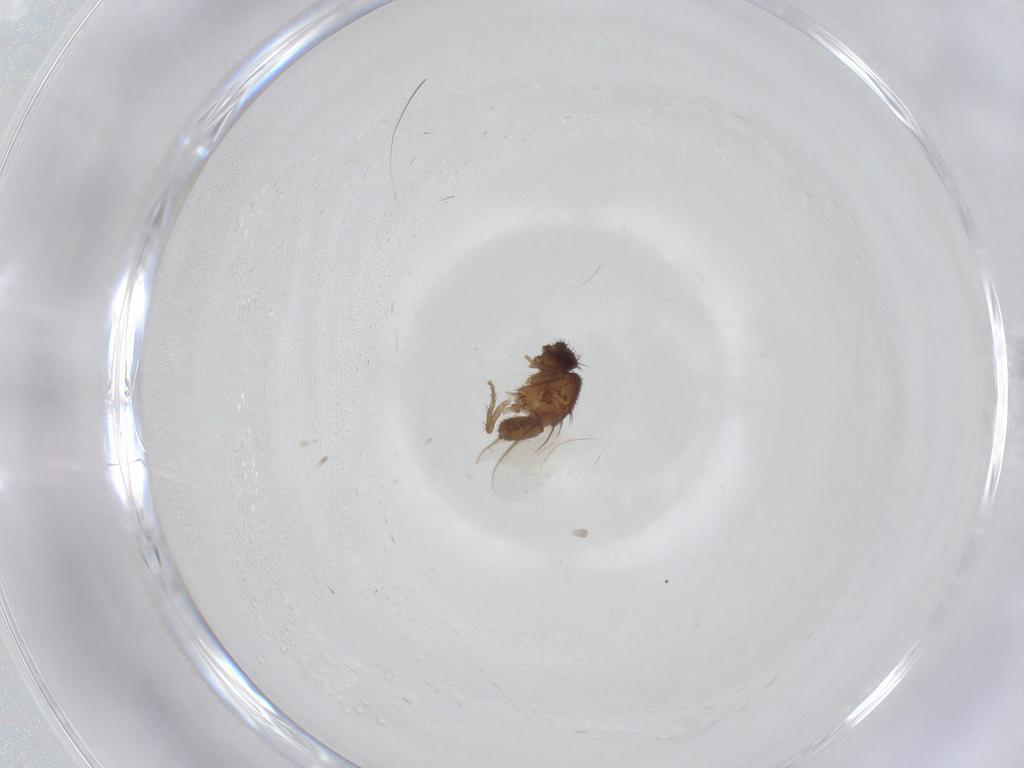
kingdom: Animalia
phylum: Arthropoda
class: Insecta
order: Diptera
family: Sphaeroceridae
